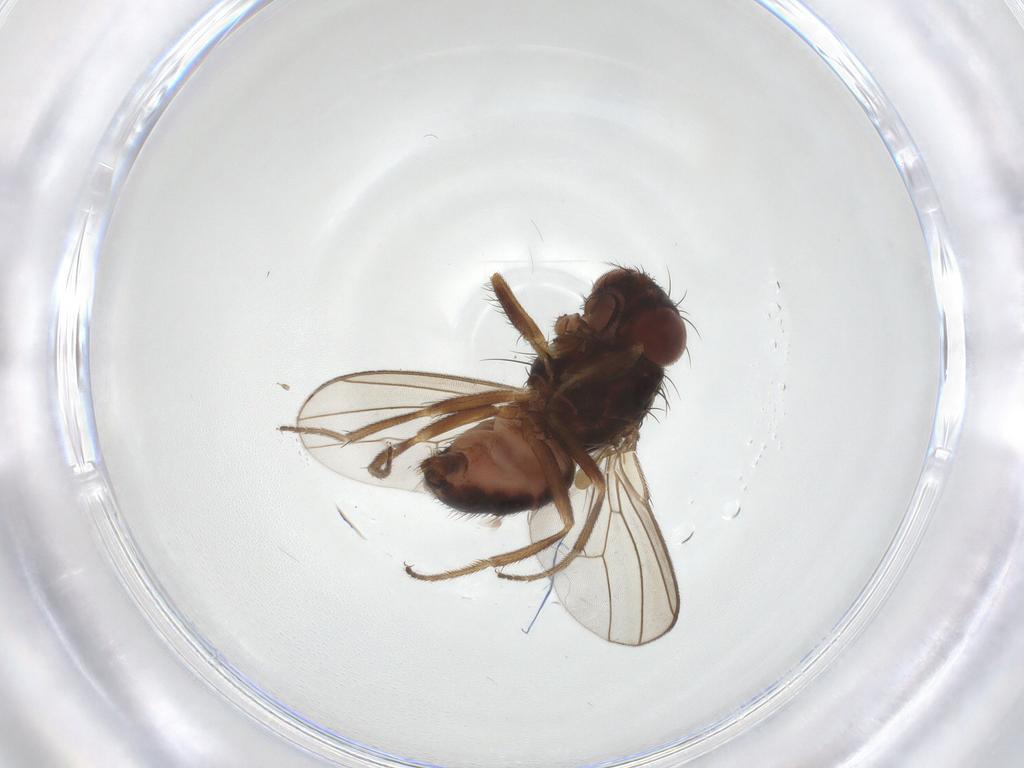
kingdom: Animalia
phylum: Arthropoda
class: Insecta
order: Diptera
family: Drosophilidae
